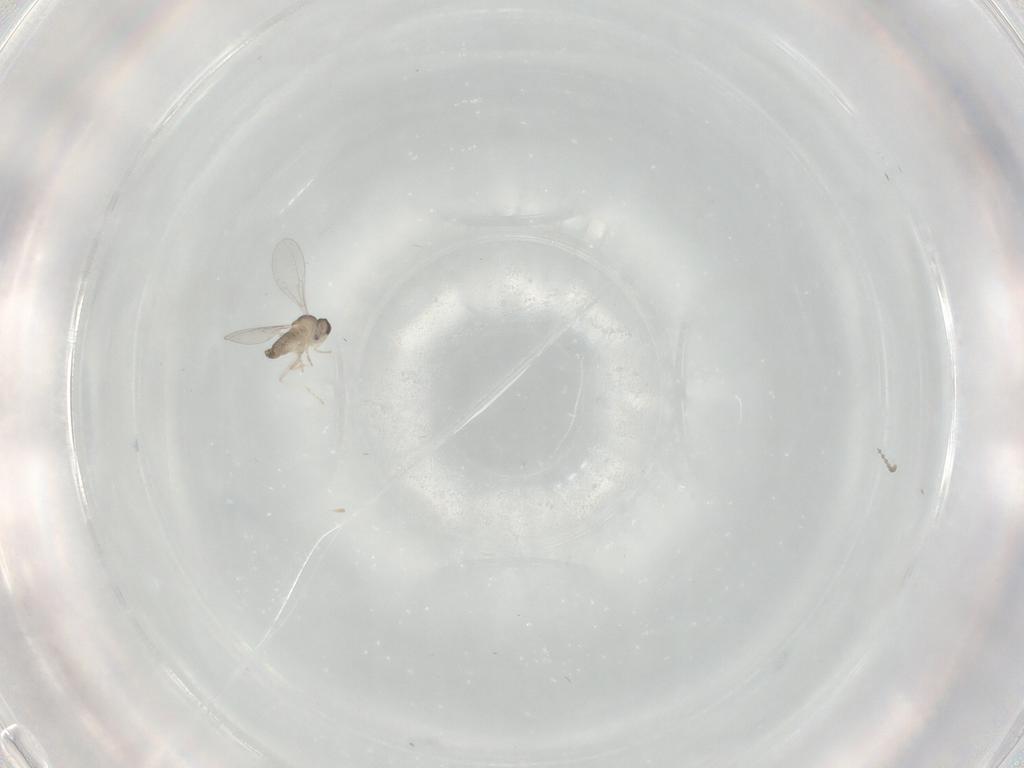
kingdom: Animalia
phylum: Arthropoda
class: Insecta
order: Diptera
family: Cecidomyiidae
